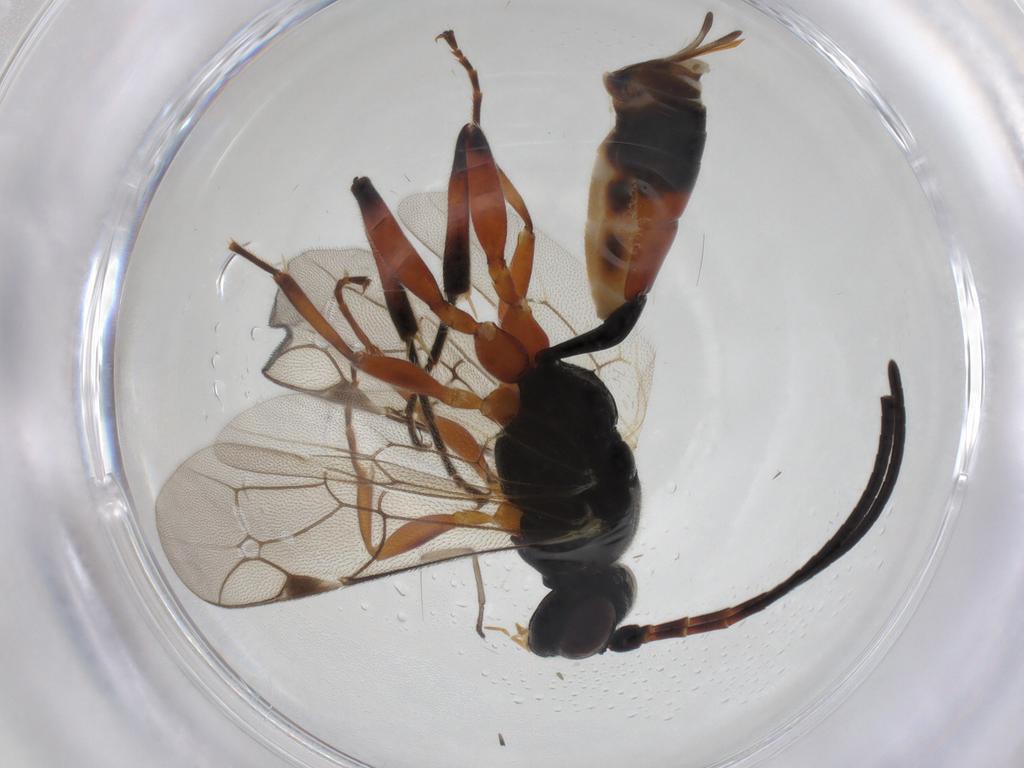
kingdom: Animalia
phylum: Arthropoda
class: Insecta
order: Hymenoptera
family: Ichneumonidae
